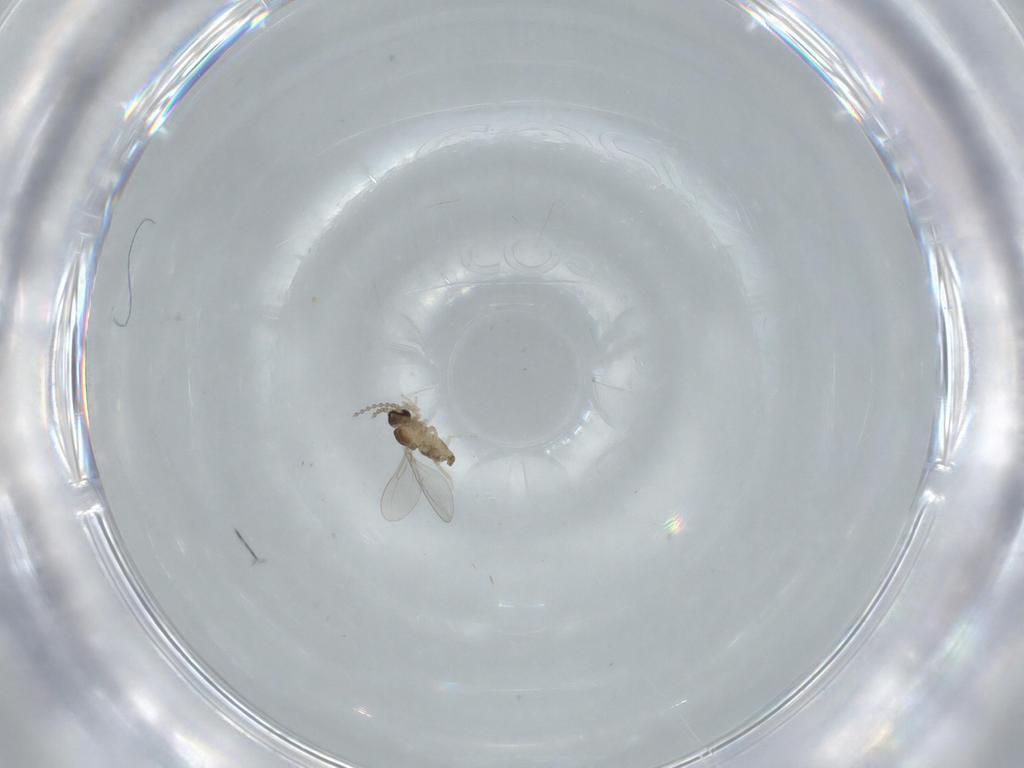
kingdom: Animalia
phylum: Arthropoda
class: Insecta
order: Diptera
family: Cecidomyiidae
